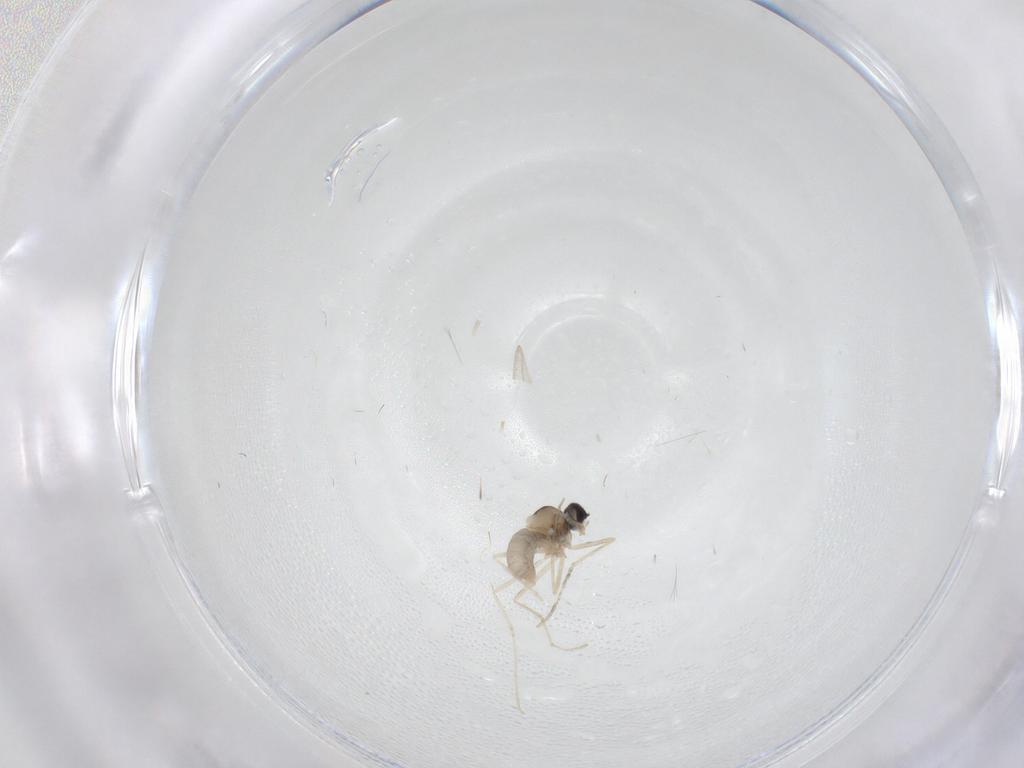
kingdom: Animalia
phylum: Arthropoda
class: Insecta
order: Diptera
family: Cecidomyiidae
